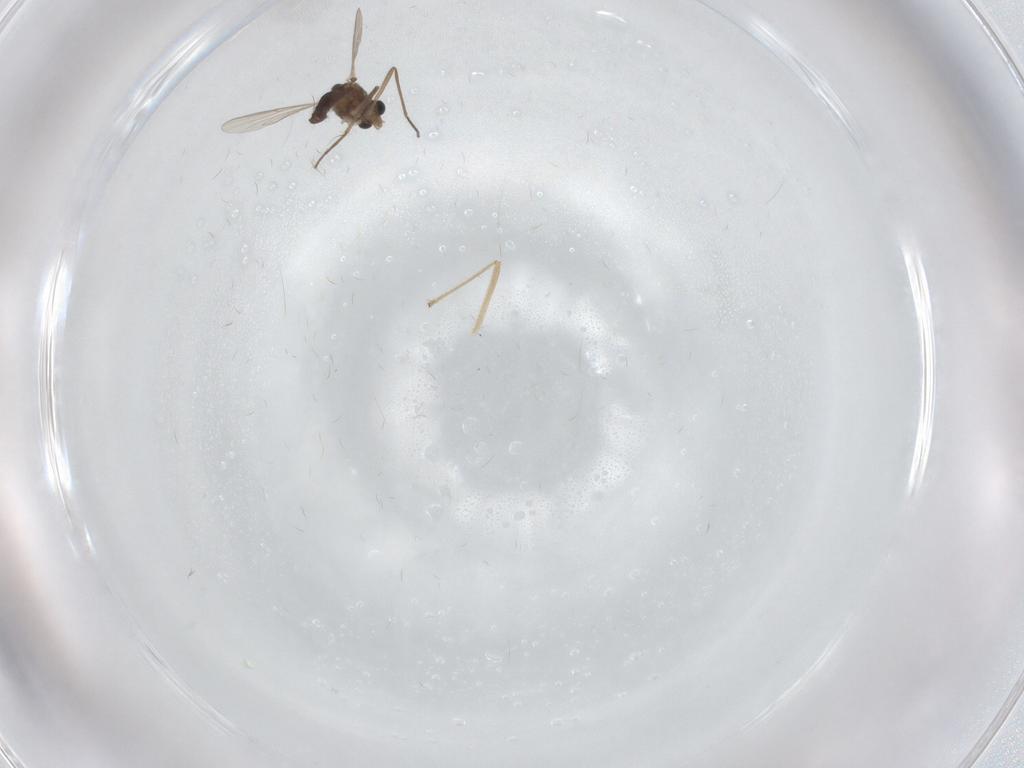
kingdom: Animalia
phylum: Arthropoda
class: Insecta
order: Diptera
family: Chironomidae
